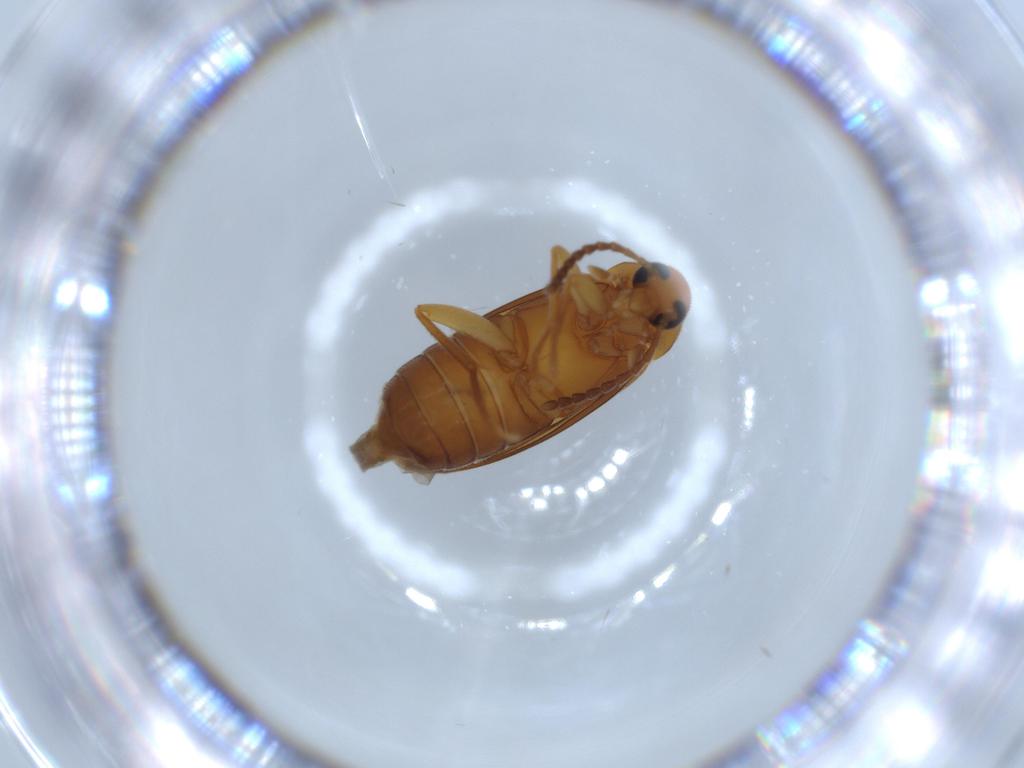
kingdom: Animalia
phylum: Arthropoda
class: Insecta
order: Coleoptera
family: Scraptiidae
